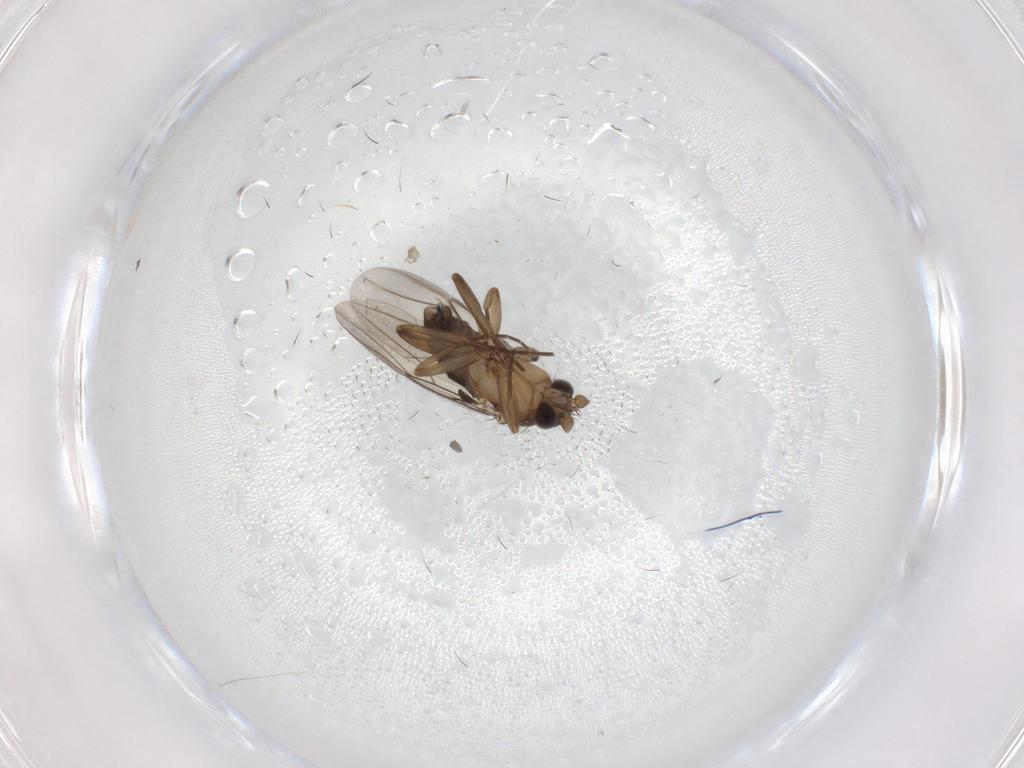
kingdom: Animalia
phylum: Arthropoda
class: Insecta
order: Diptera
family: Phoridae
